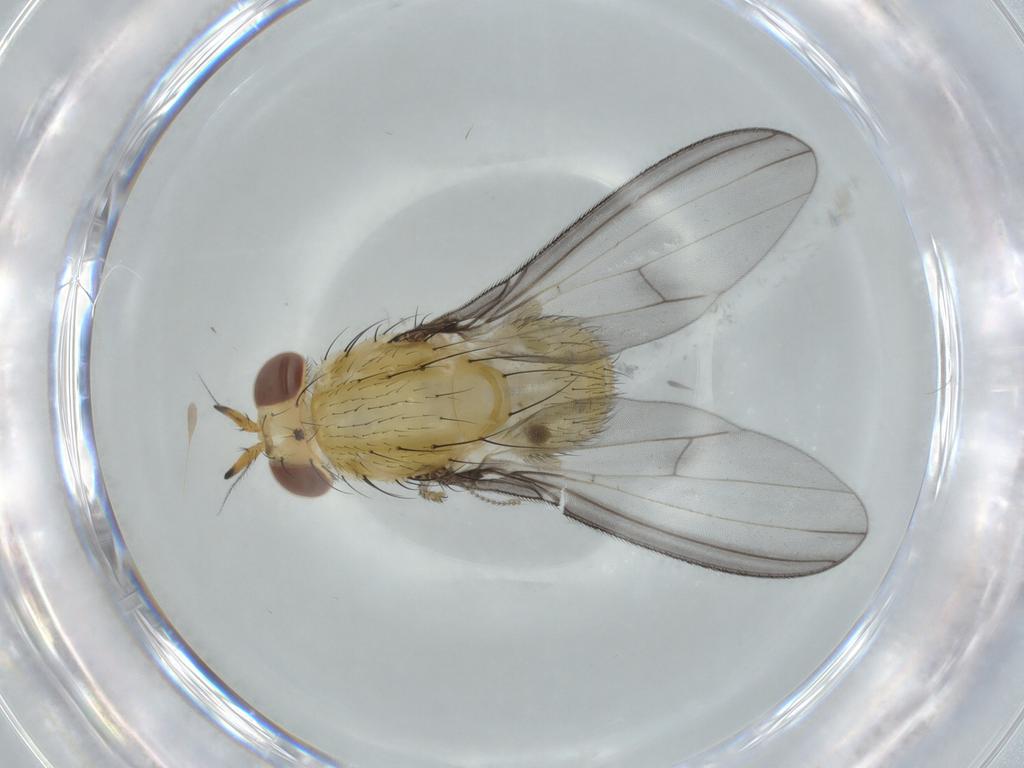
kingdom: Animalia
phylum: Arthropoda
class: Insecta
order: Diptera
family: Lauxaniidae
